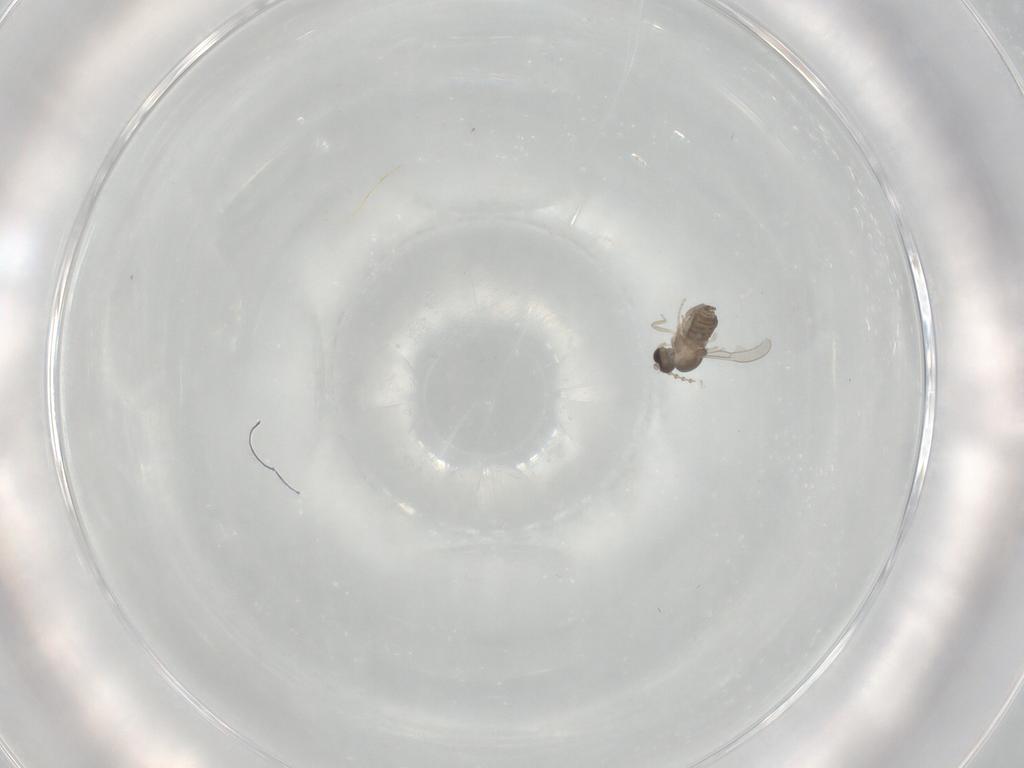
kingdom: Animalia
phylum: Arthropoda
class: Insecta
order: Diptera
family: Cecidomyiidae
